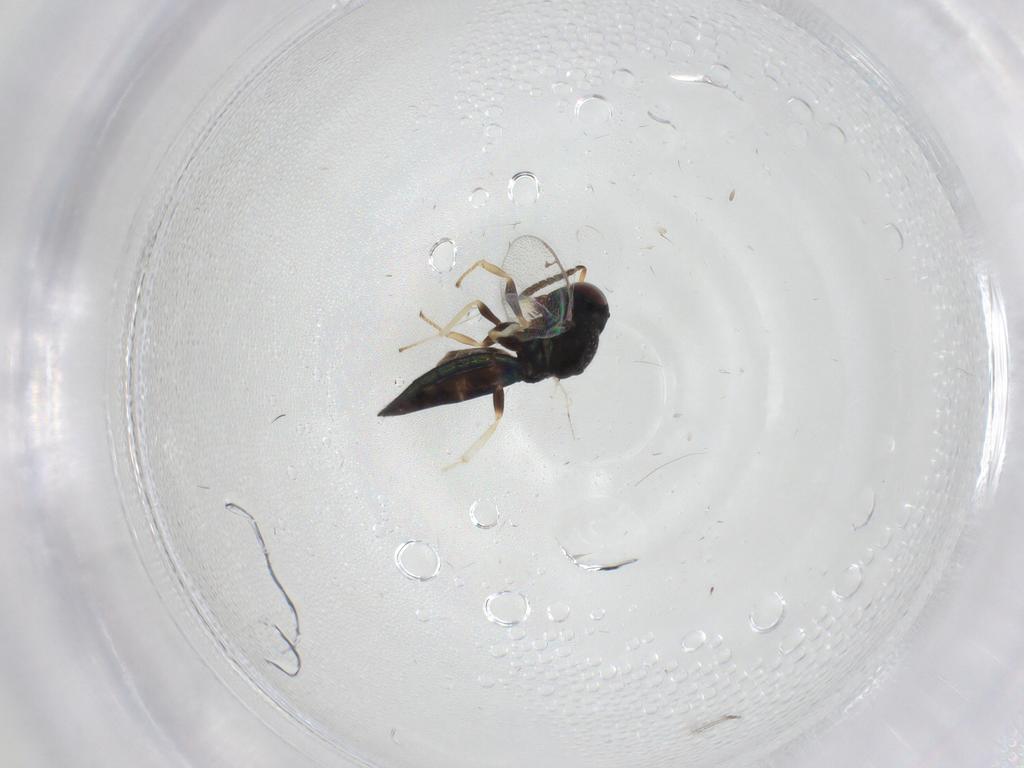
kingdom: Animalia
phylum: Arthropoda
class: Insecta
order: Hymenoptera
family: Pteromalidae
